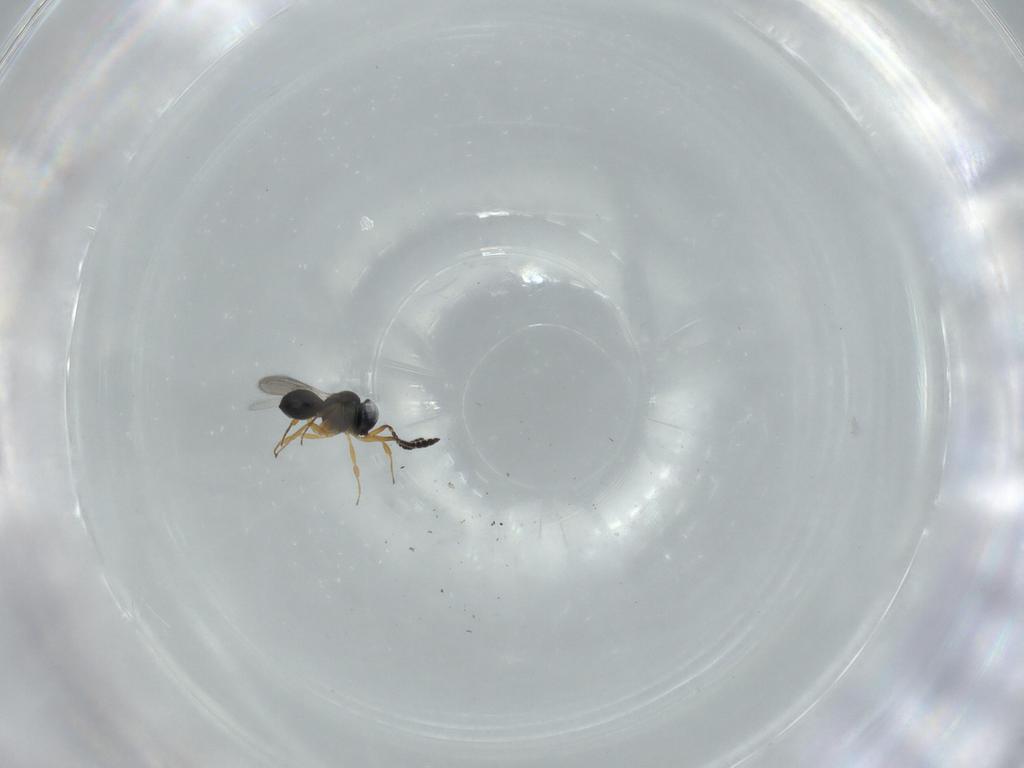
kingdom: Animalia
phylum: Arthropoda
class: Insecta
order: Hymenoptera
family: Scelionidae
